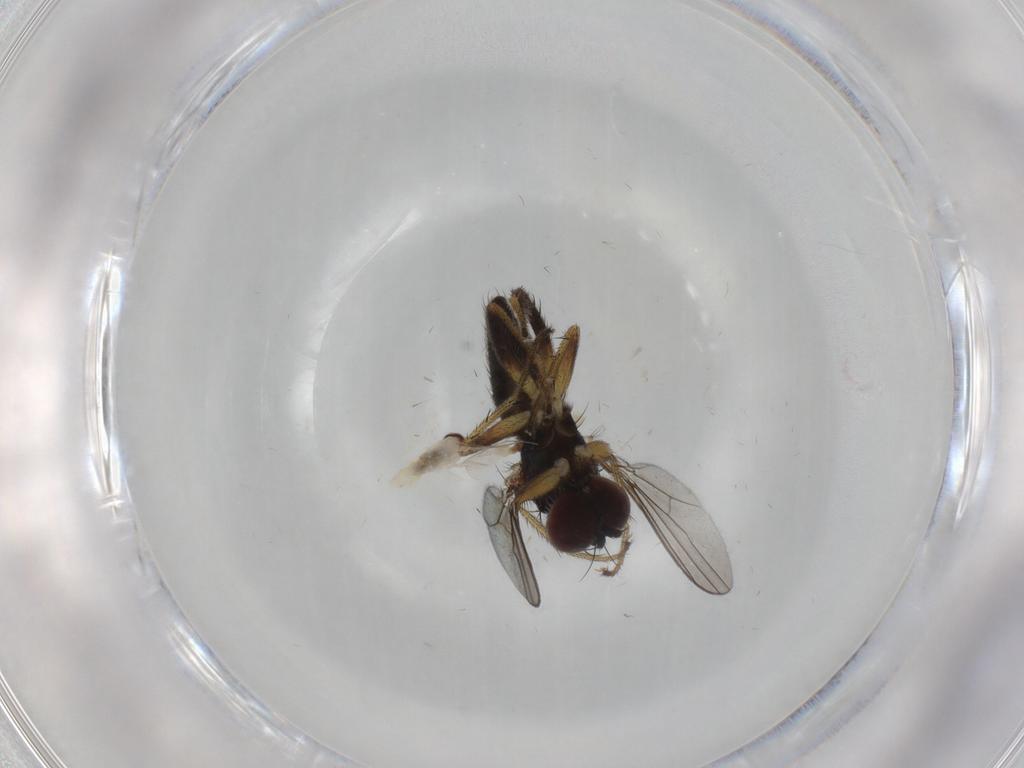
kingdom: Animalia
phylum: Arthropoda
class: Insecta
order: Diptera
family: Dolichopodidae
